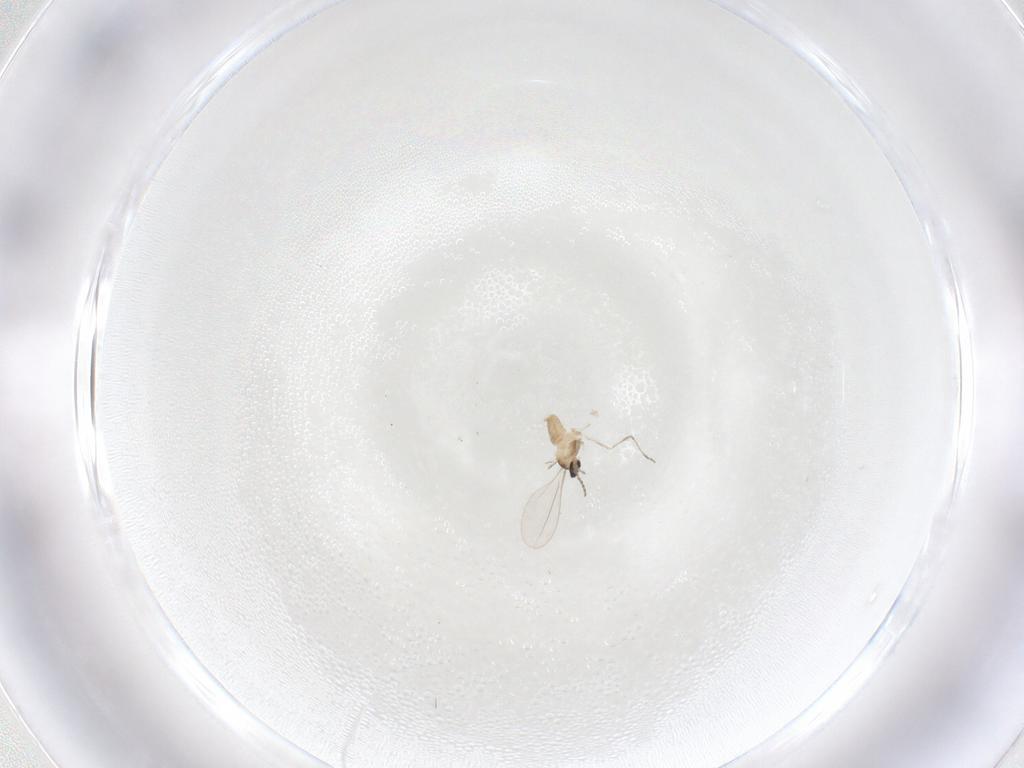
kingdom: Animalia
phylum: Arthropoda
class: Insecta
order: Diptera
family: Cecidomyiidae
